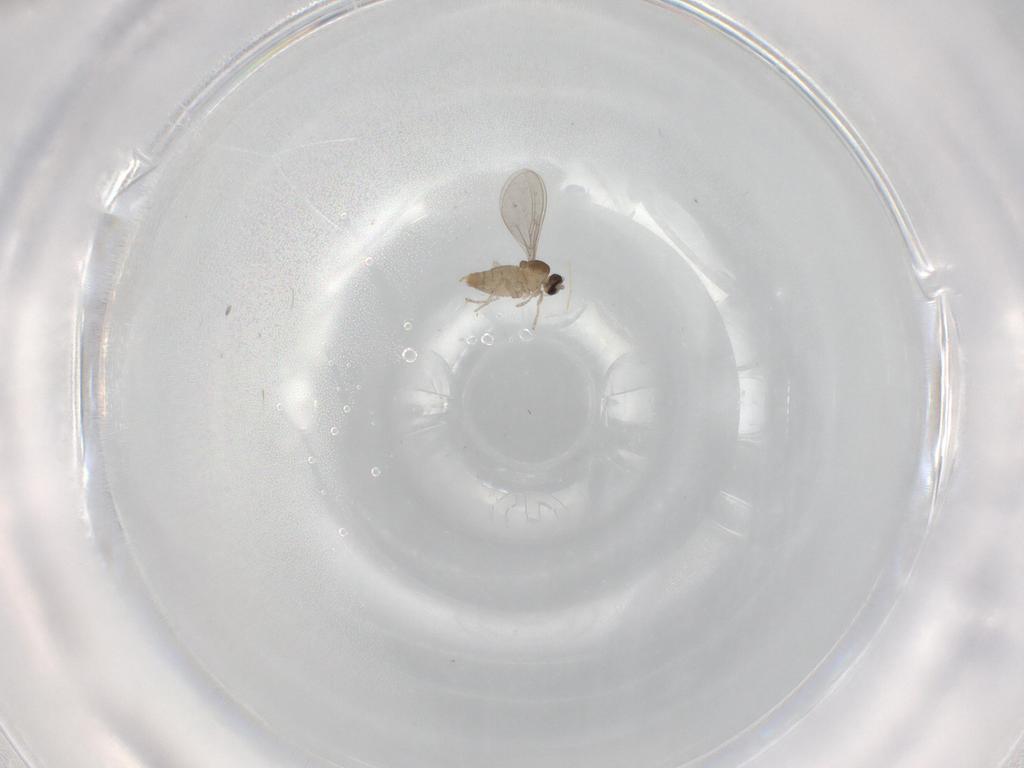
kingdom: Animalia
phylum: Arthropoda
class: Insecta
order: Diptera
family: Cecidomyiidae
